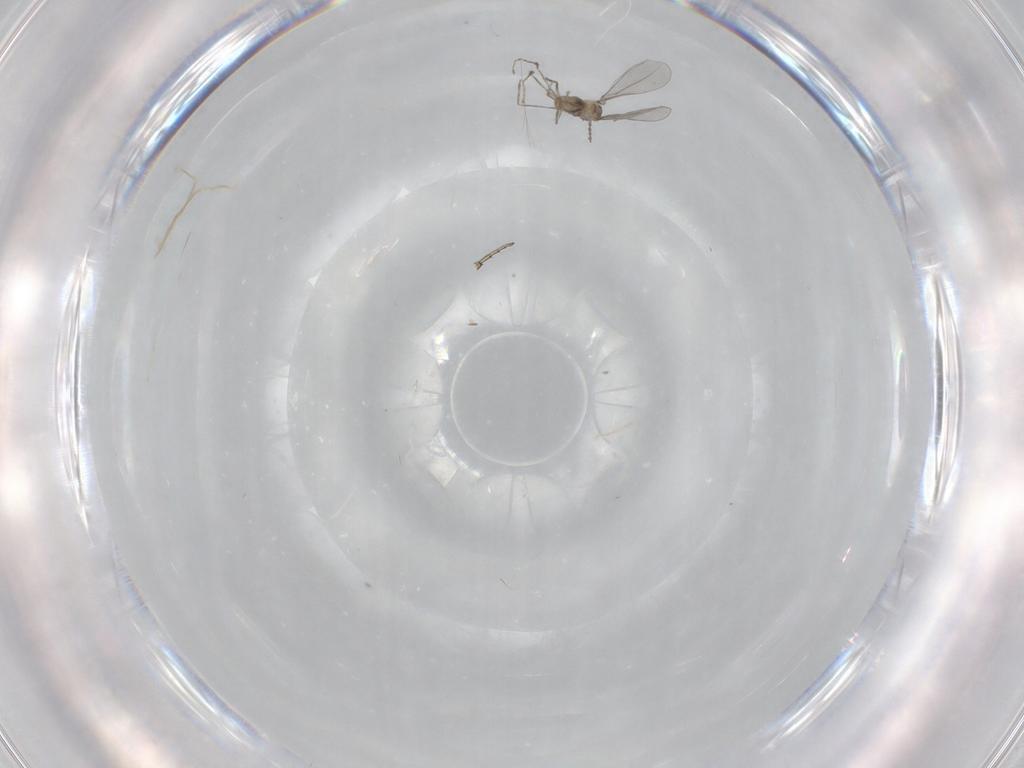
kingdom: Animalia
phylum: Arthropoda
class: Insecta
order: Diptera
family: Cecidomyiidae
